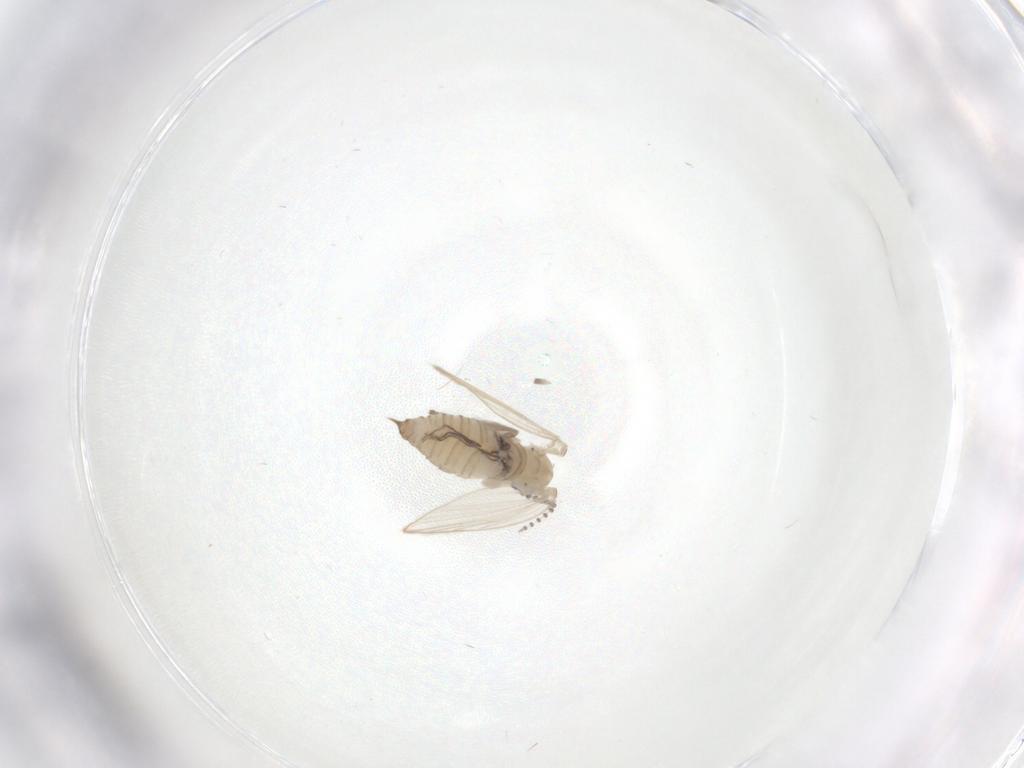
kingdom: Animalia
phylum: Arthropoda
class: Insecta
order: Diptera
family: Psychodidae
